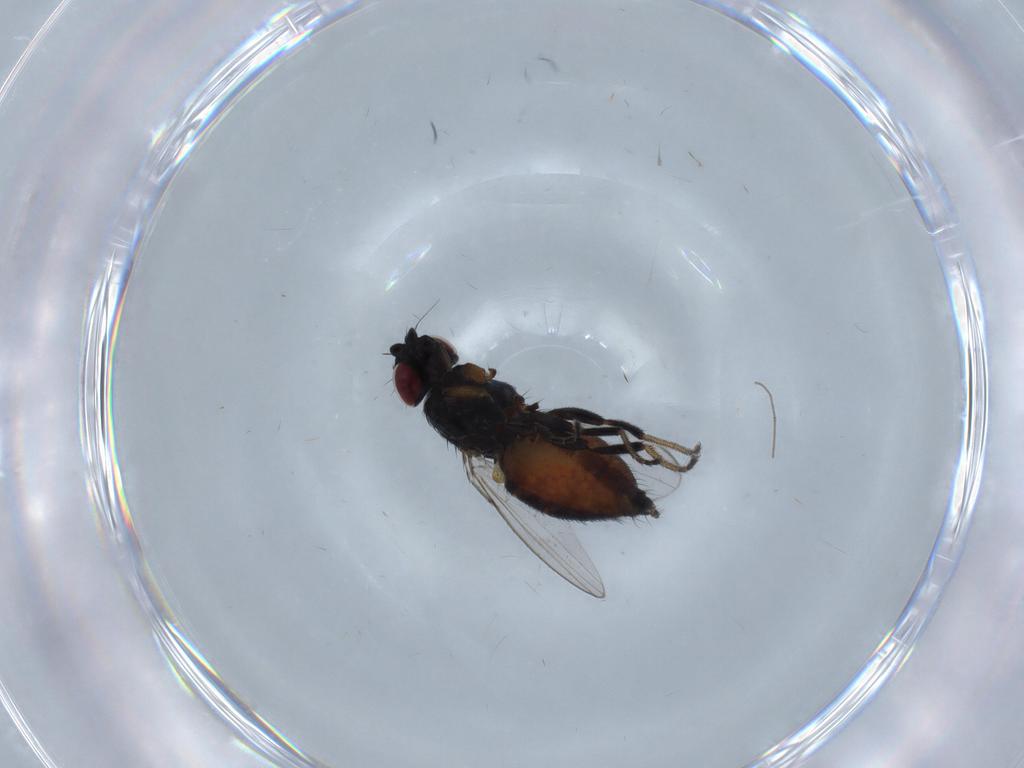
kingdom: Animalia
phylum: Arthropoda
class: Insecta
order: Diptera
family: Milichiidae
